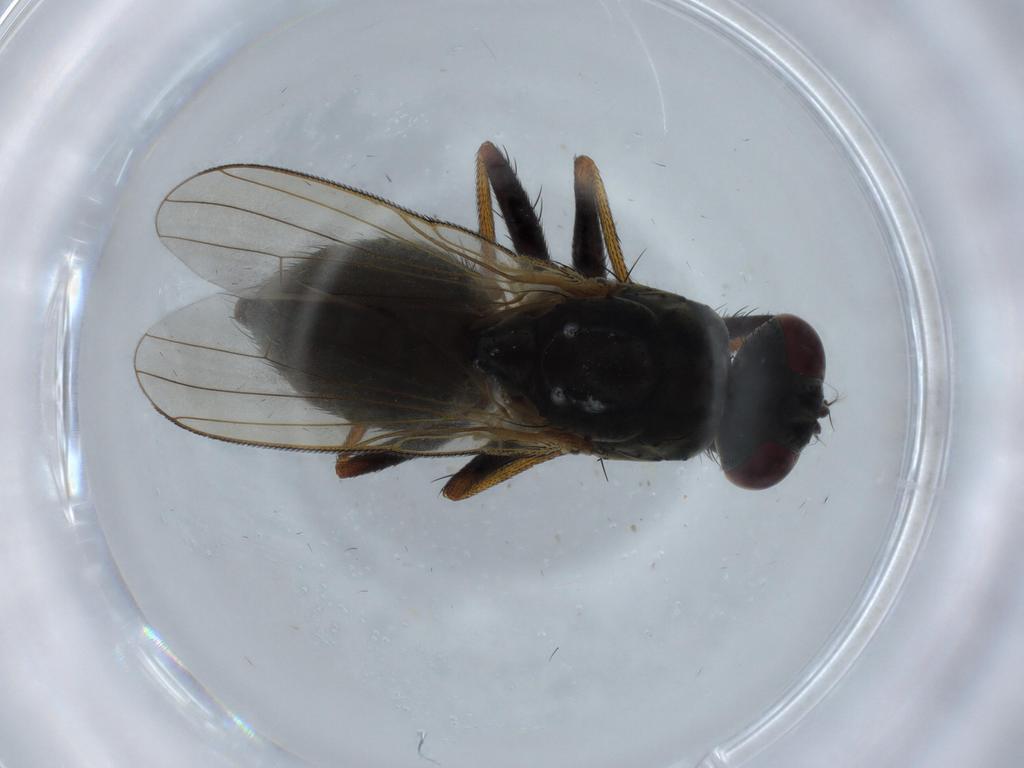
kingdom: Animalia
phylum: Arthropoda
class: Insecta
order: Diptera
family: Muscidae
